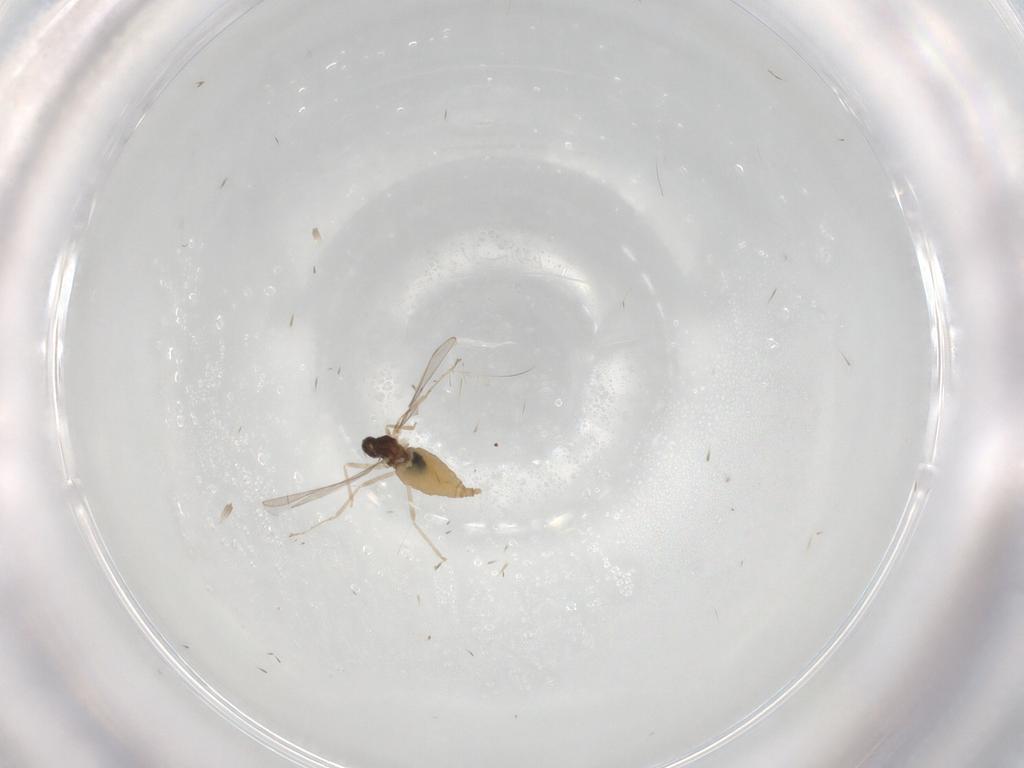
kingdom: Animalia
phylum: Arthropoda
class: Insecta
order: Diptera
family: Cecidomyiidae
